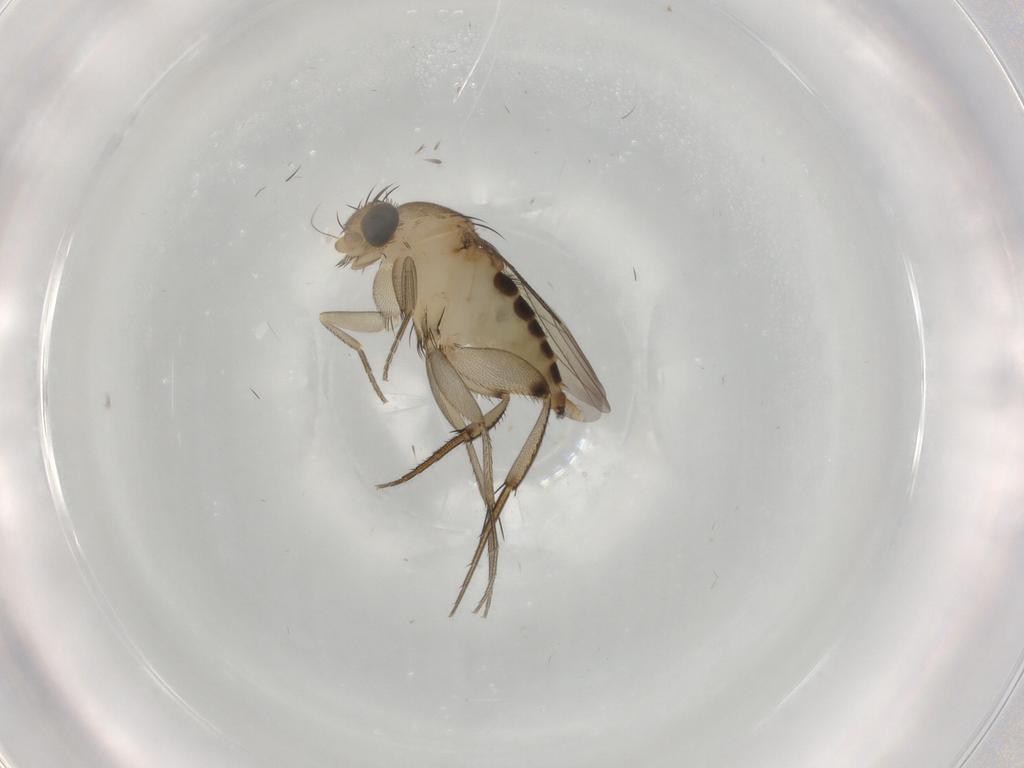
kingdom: Animalia
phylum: Arthropoda
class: Insecta
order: Diptera
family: Phoridae
